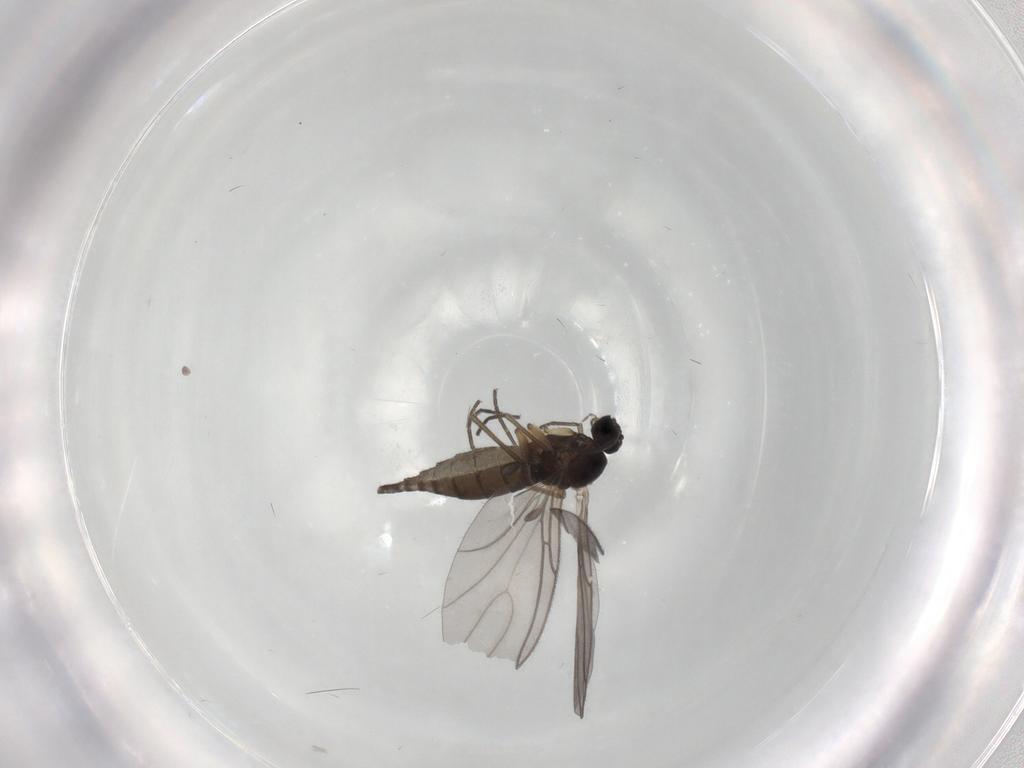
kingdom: Animalia
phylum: Arthropoda
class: Insecta
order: Diptera
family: Sciaridae
